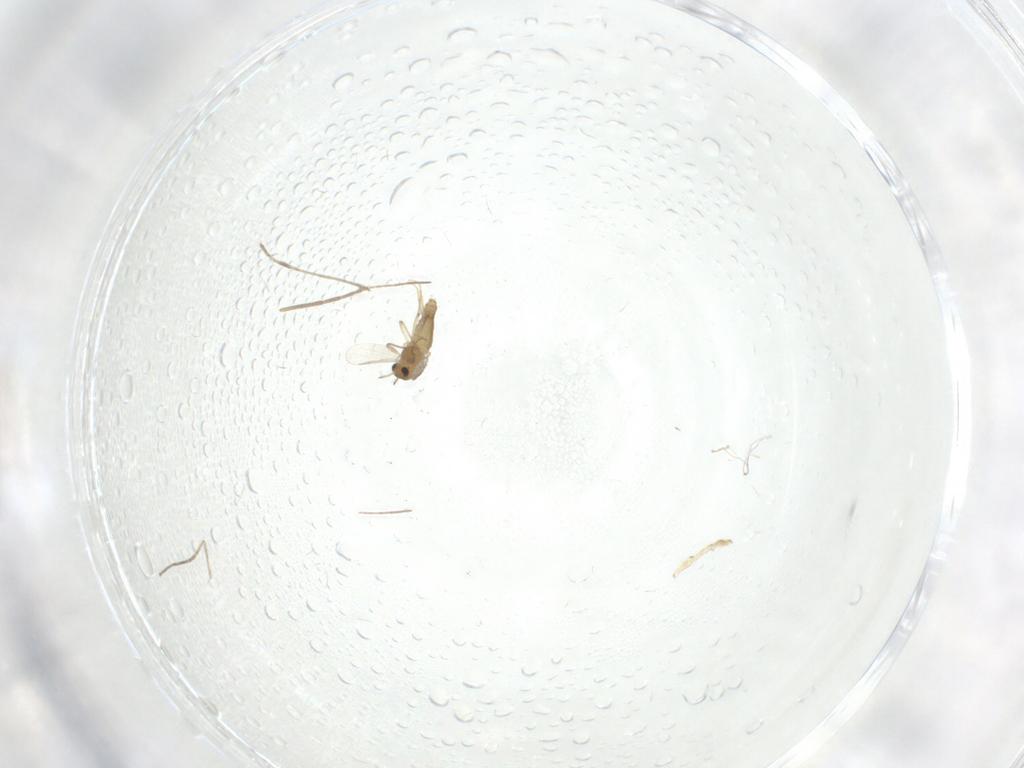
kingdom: Animalia
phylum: Arthropoda
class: Insecta
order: Diptera
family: Chironomidae
